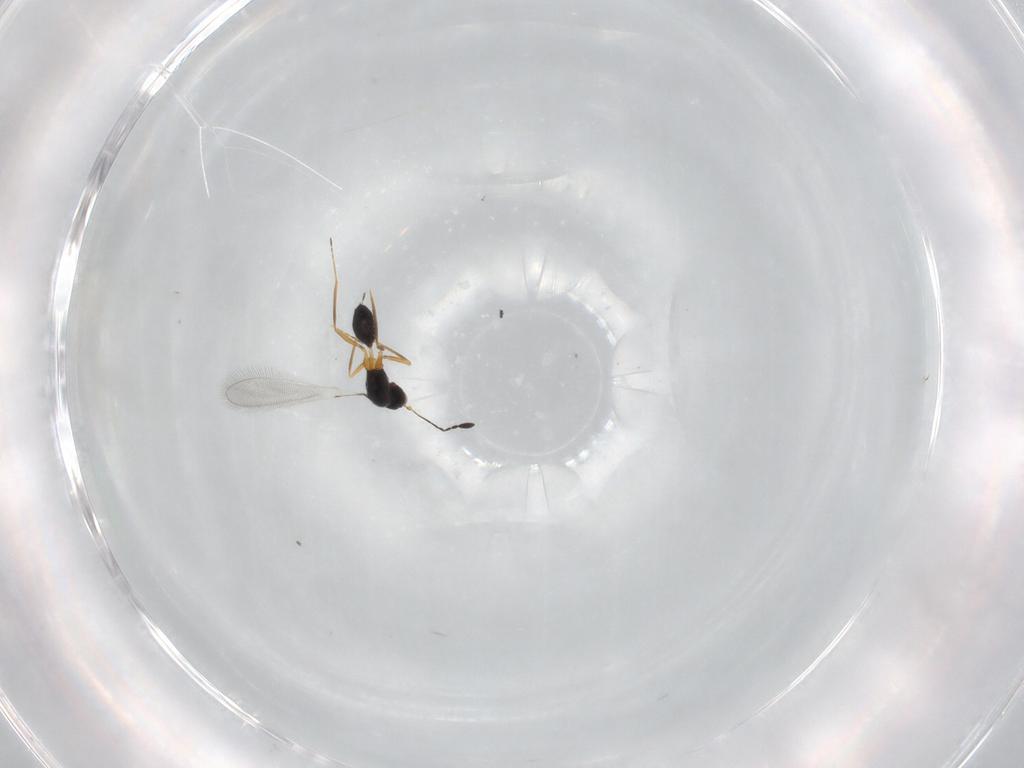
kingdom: Animalia
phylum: Arthropoda
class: Insecta
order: Hymenoptera
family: Mymaridae
